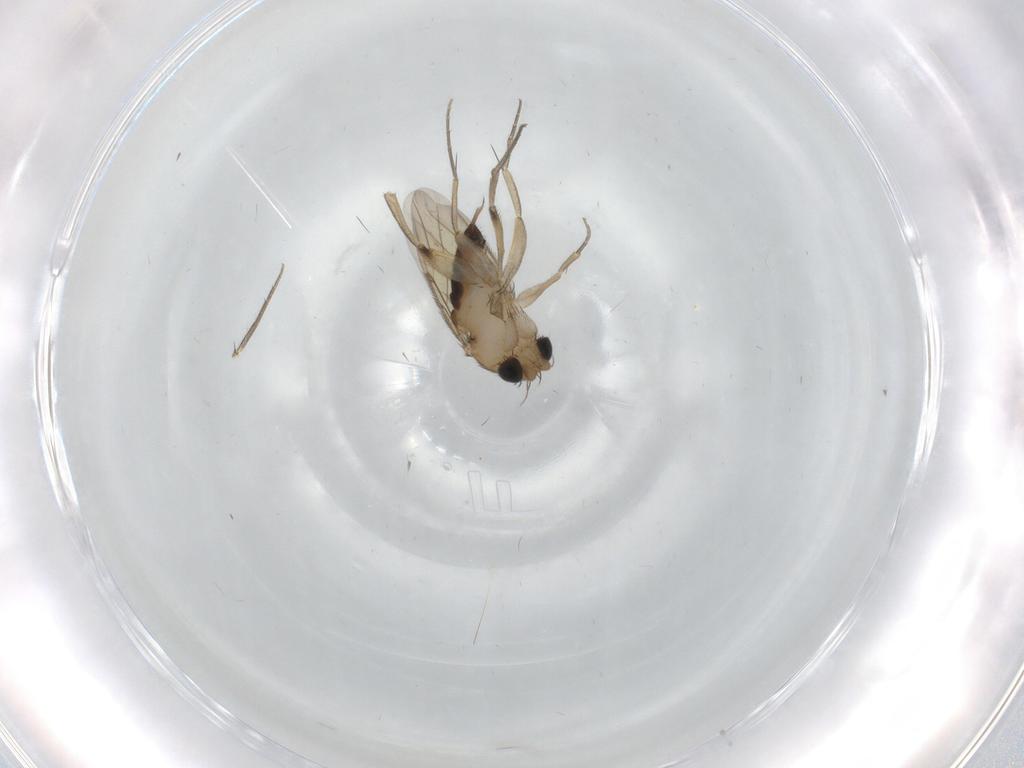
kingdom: Animalia
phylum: Arthropoda
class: Insecta
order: Diptera
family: Phoridae
